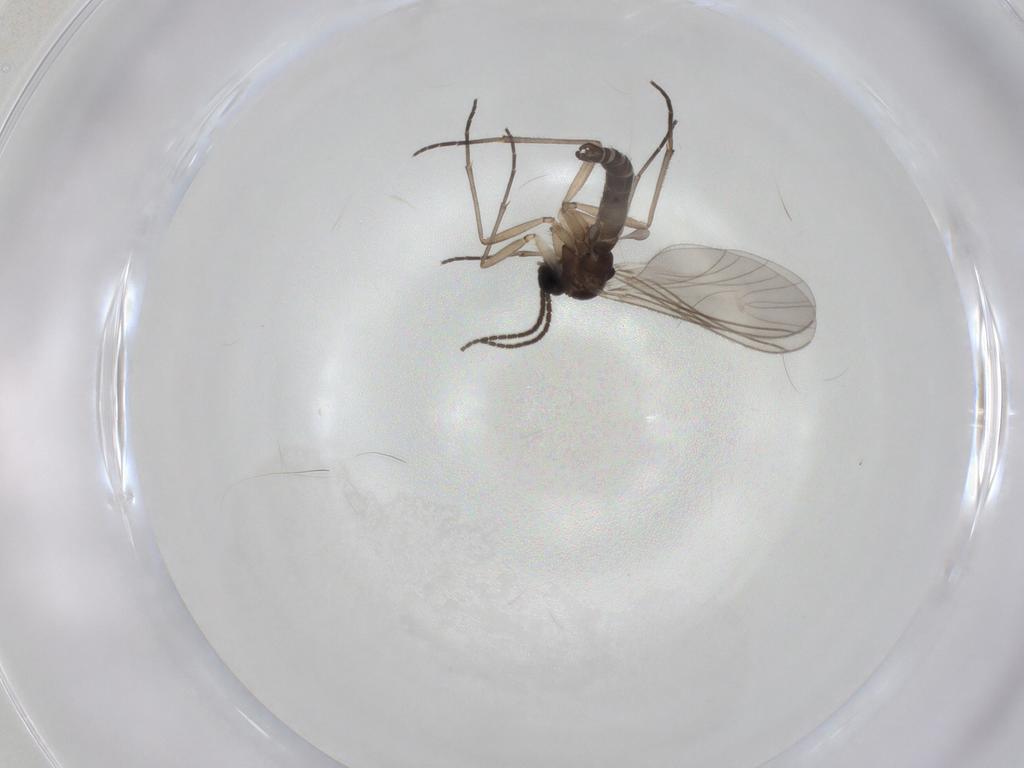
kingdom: Animalia
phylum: Arthropoda
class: Insecta
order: Diptera
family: Sciaridae
